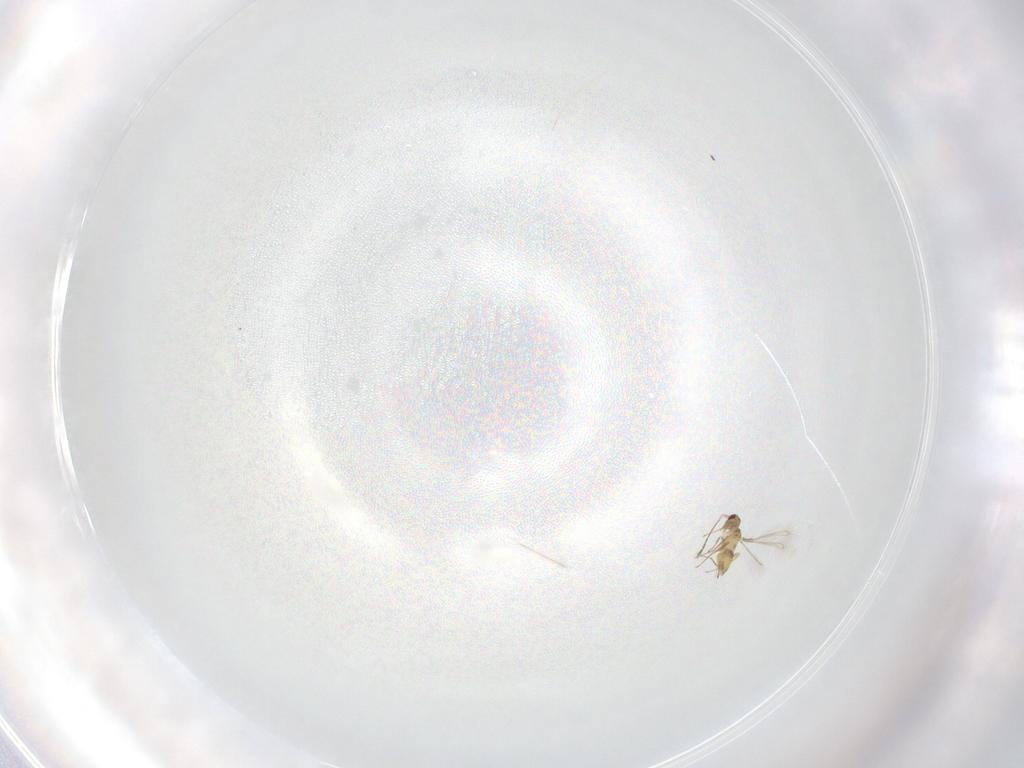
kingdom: Animalia
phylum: Arthropoda
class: Insecta
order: Hymenoptera
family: Mymaridae
